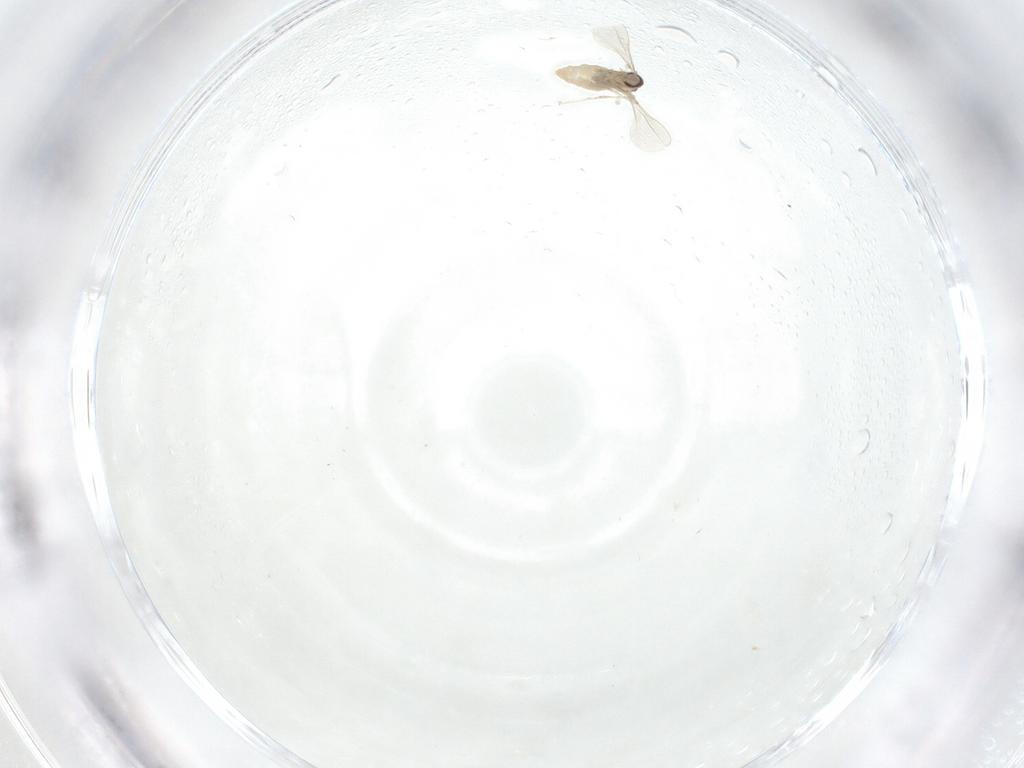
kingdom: Animalia
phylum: Arthropoda
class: Insecta
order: Diptera
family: Cecidomyiidae
